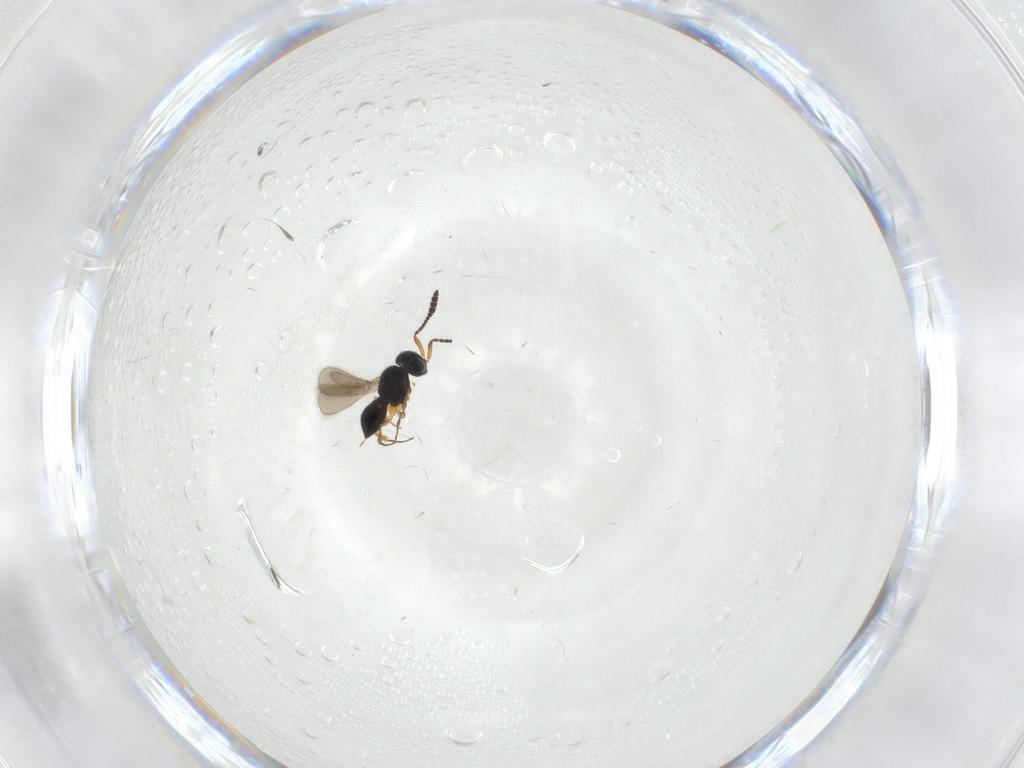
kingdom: Animalia
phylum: Arthropoda
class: Insecta
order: Hymenoptera
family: Scelionidae
